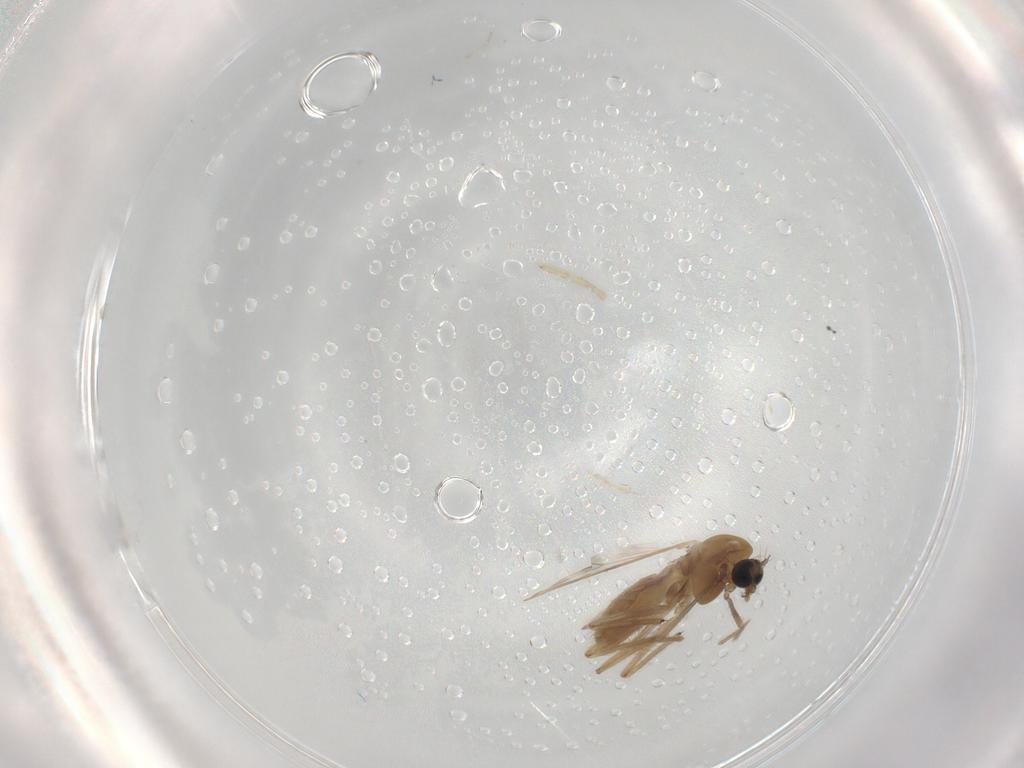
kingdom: Animalia
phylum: Arthropoda
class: Insecta
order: Diptera
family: Chironomidae
